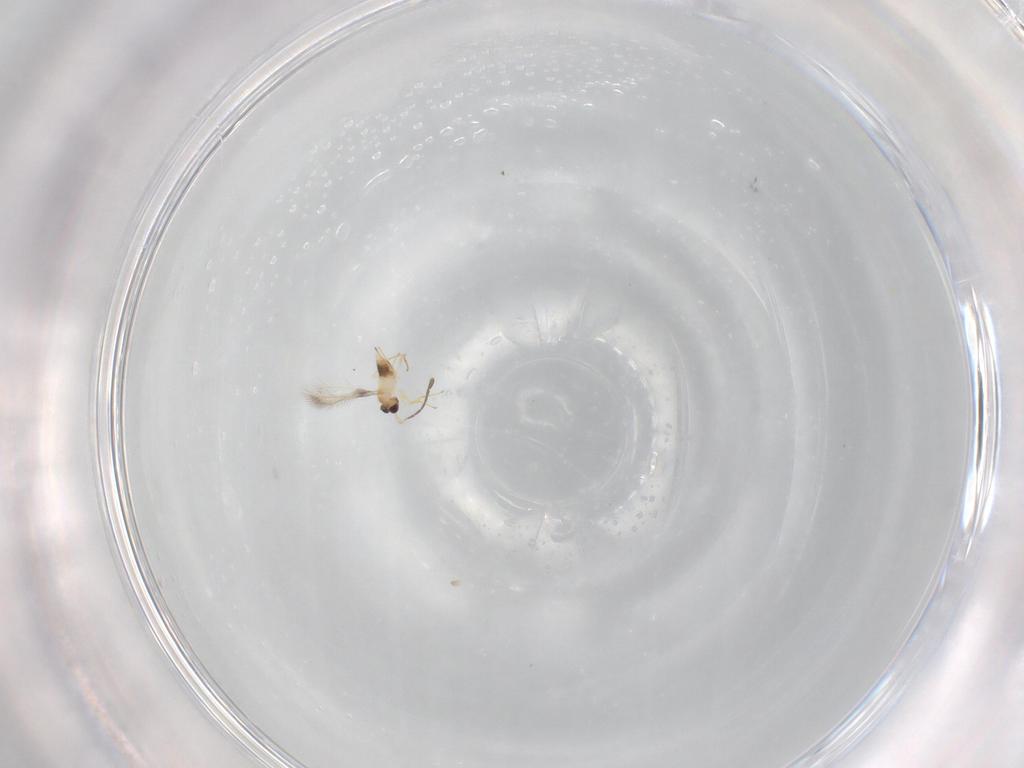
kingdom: Animalia
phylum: Arthropoda
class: Insecta
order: Hymenoptera
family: Mymaridae
